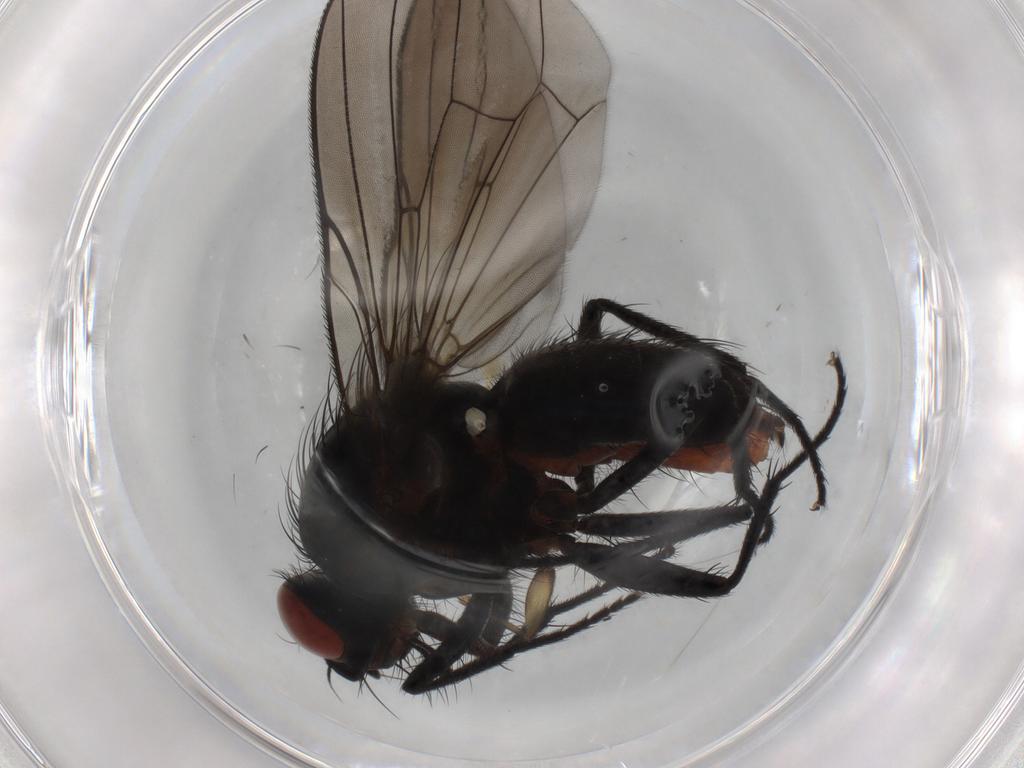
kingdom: Animalia
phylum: Arthropoda
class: Insecta
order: Diptera
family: Anthomyiidae
